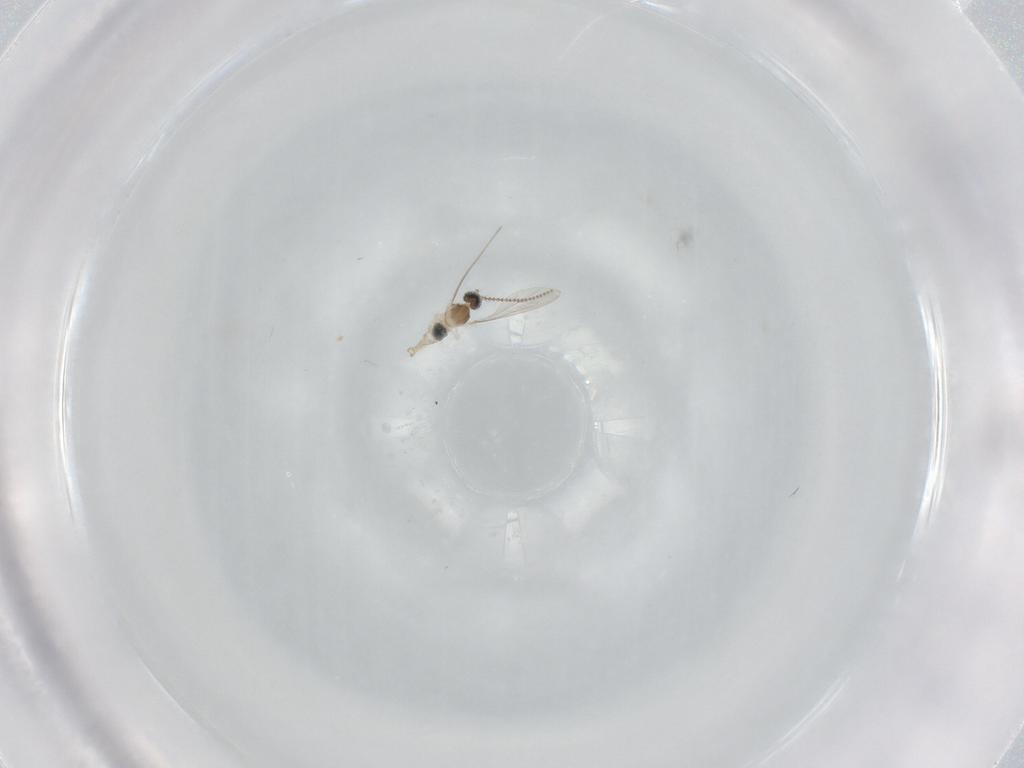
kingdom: Animalia
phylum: Arthropoda
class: Insecta
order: Diptera
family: Cecidomyiidae
